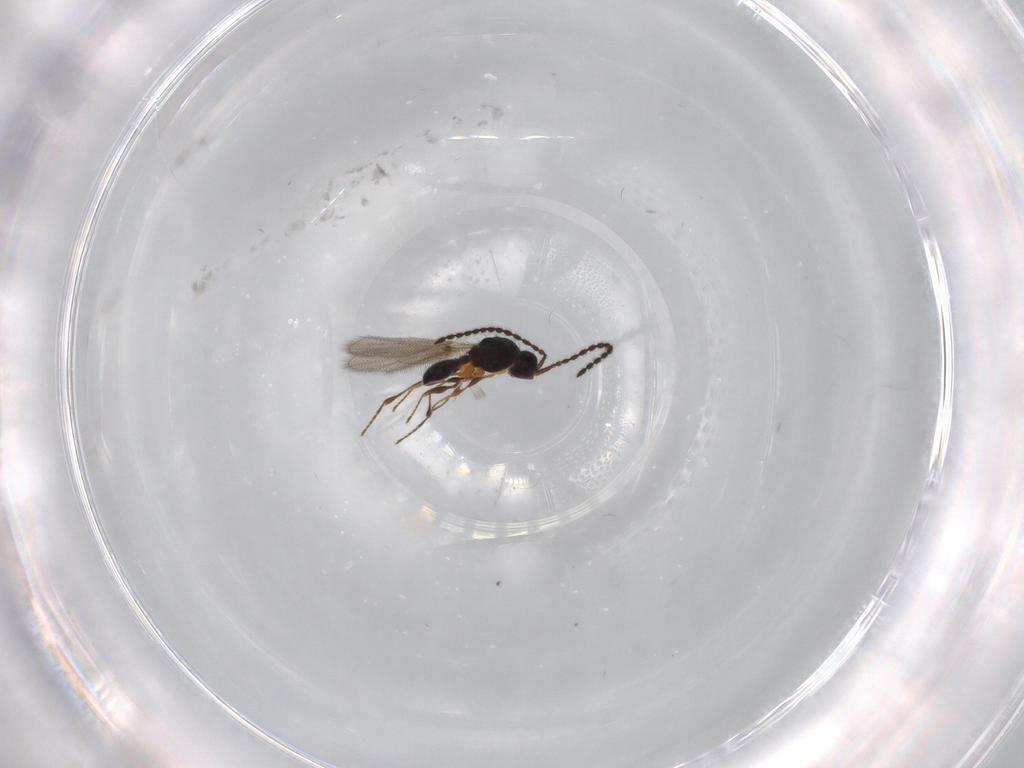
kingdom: Animalia
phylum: Arthropoda
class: Insecta
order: Hymenoptera
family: Diapriidae
